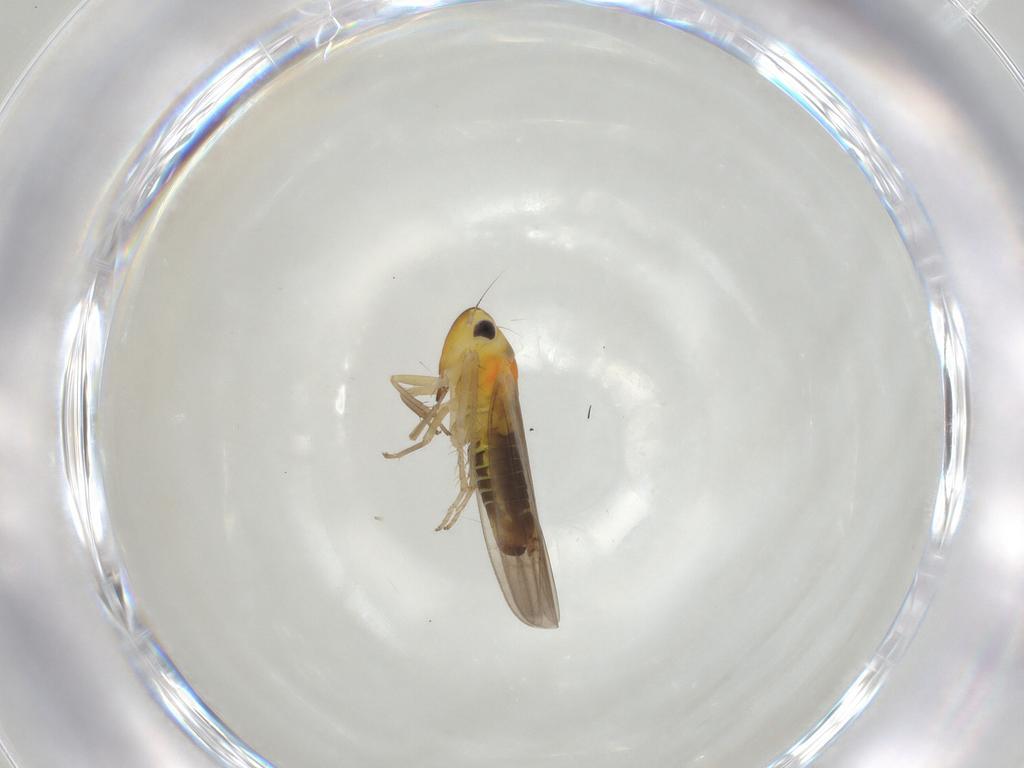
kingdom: Animalia
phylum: Arthropoda
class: Insecta
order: Hemiptera
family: Cicadellidae
